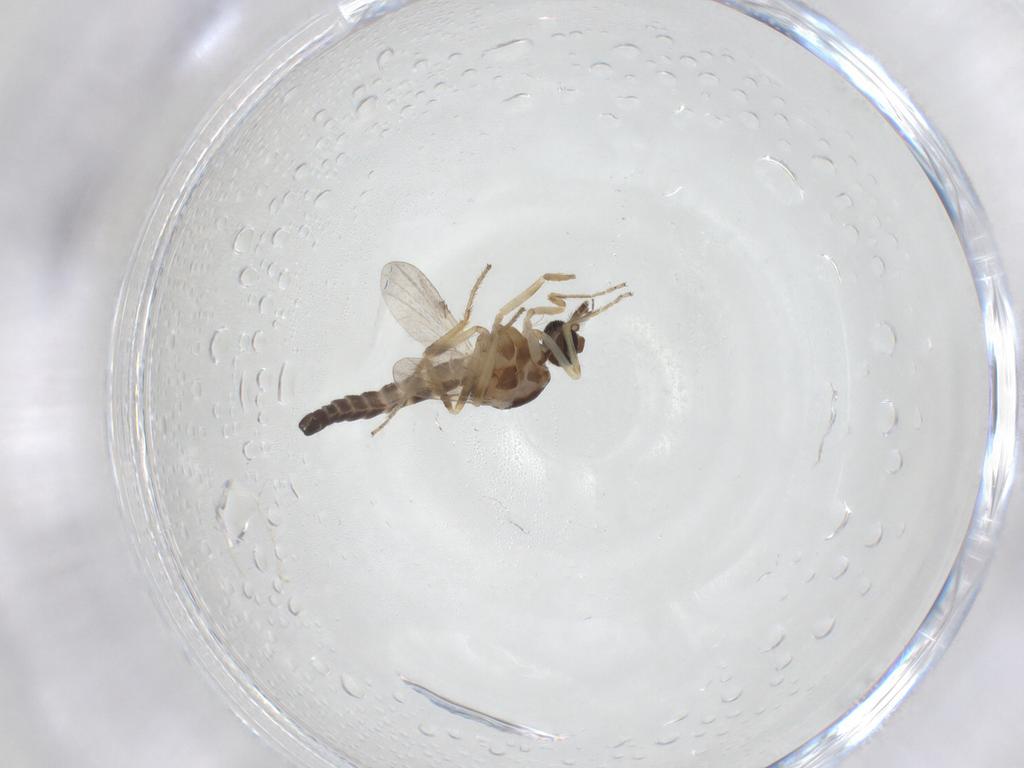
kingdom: Animalia
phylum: Arthropoda
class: Insecta
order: Diptera
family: Ceratopogonidae
